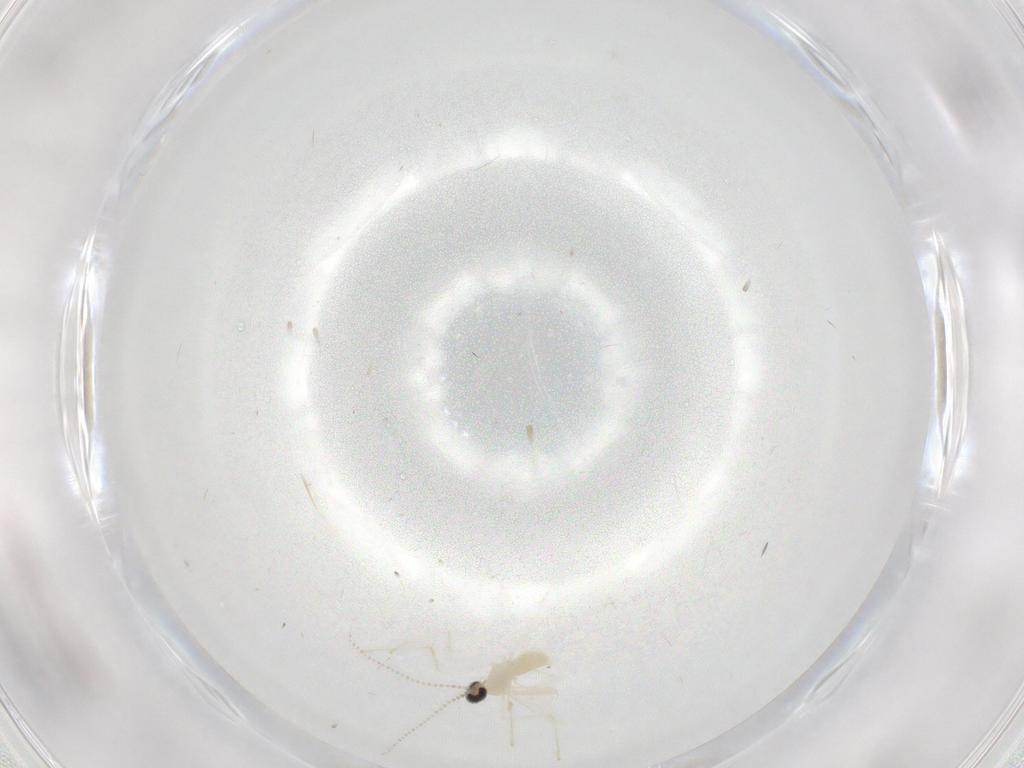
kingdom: Animalia
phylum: Arthropoda
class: Insecta
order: Diptera
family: Cecidomyiidae
